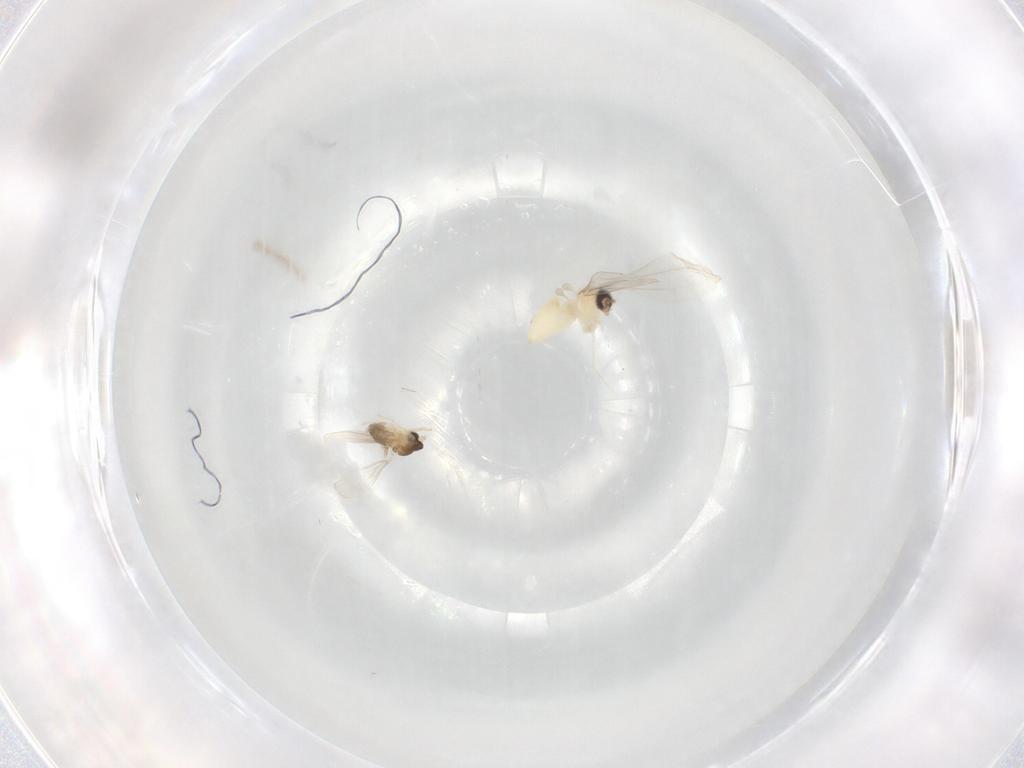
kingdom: Animalia
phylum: Arthropoda
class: Insecta
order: Diptera
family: Cecidomyiidae
